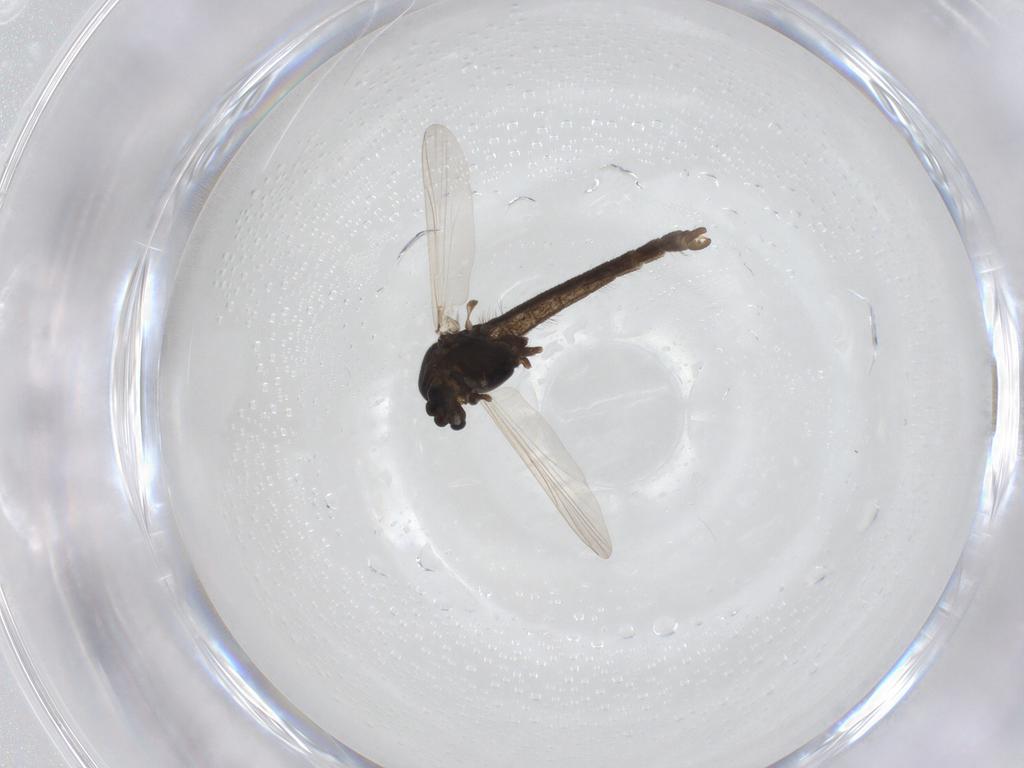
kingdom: Animalia
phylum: Arthropoda
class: Insecta
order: Diptera
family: Chironomidae
